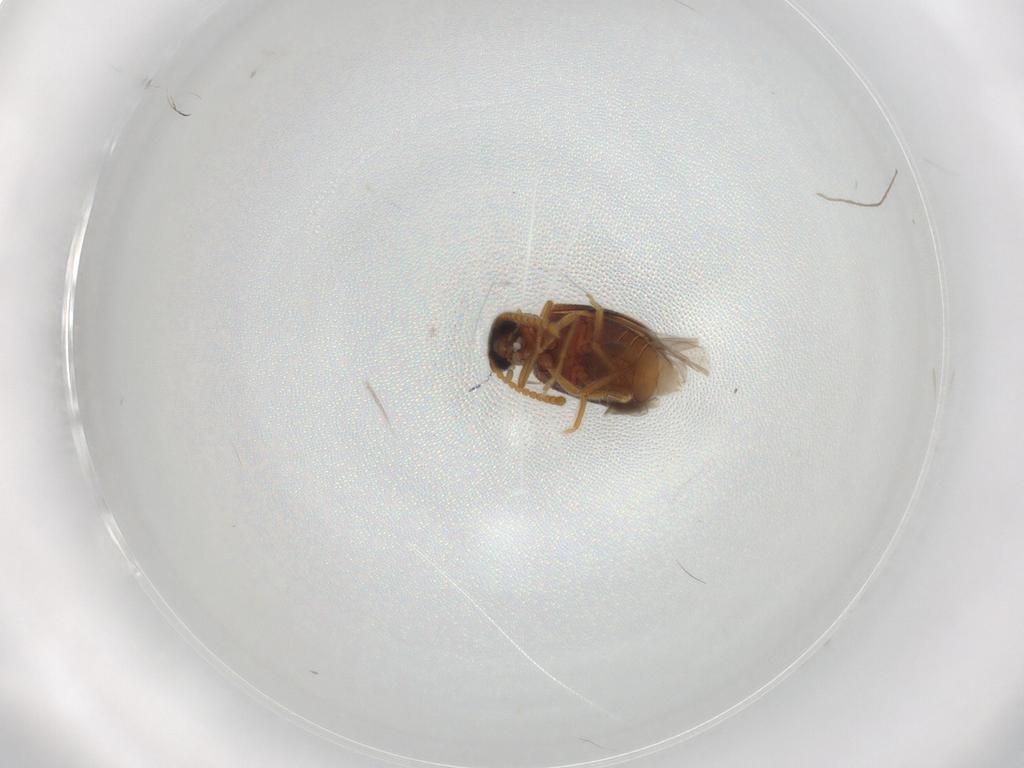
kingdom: Animalia
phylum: Arthropoda
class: Insecta
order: Coleoptera
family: Aderidae
